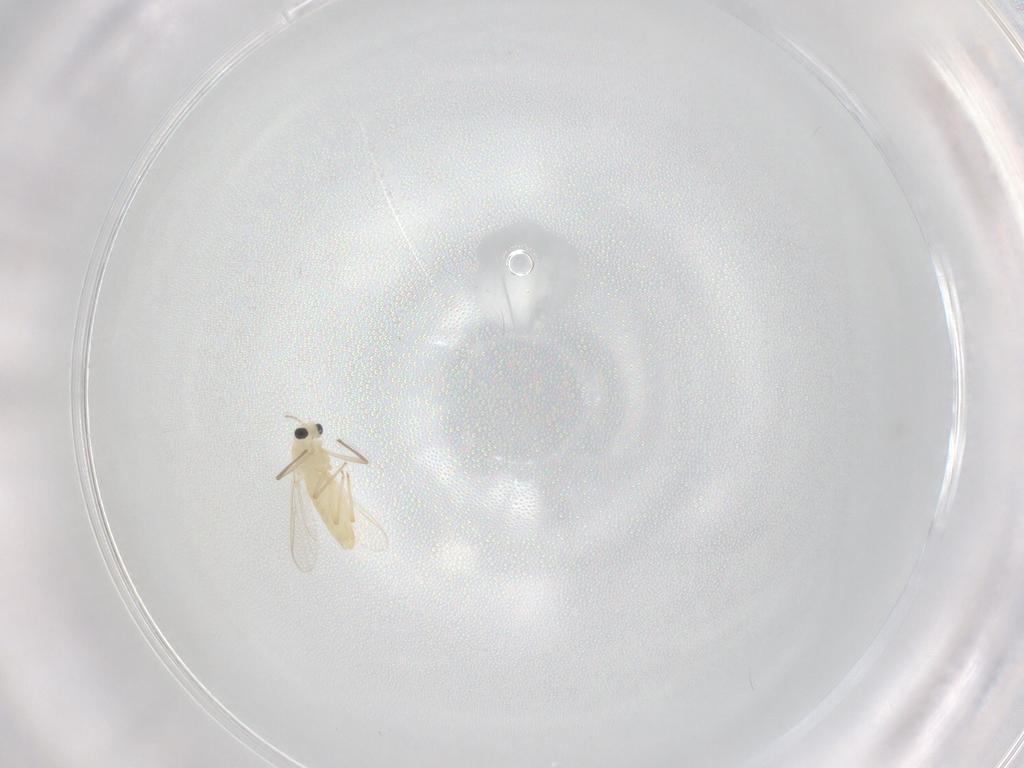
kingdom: Animalia
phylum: Arthropoda
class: Insecta
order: Diptera
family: Chironomidae
